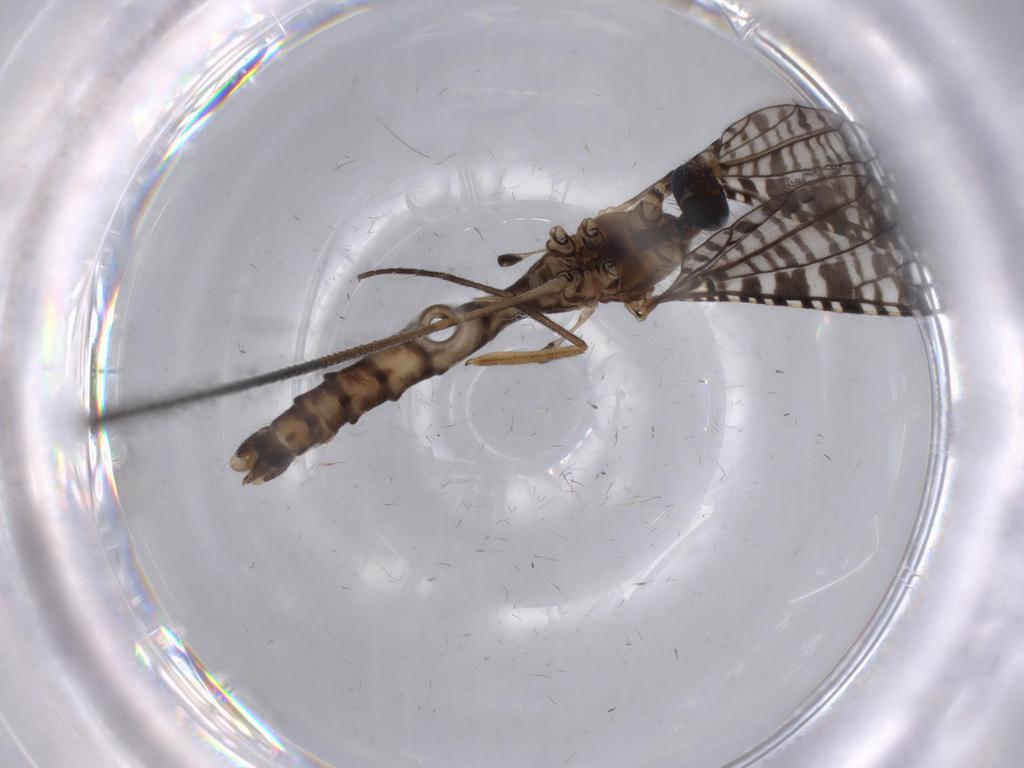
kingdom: Animalia
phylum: Arthropoda
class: Insecta
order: Diptera
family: Limoniidae
